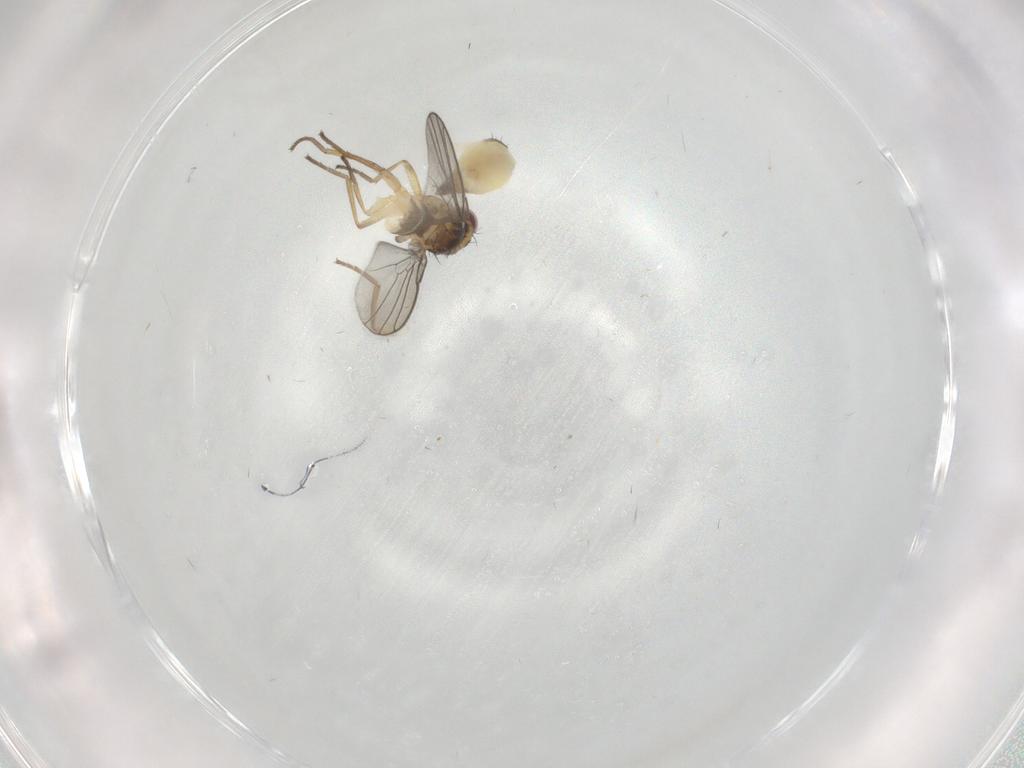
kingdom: Animalia
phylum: Arthropoda
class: Insecta
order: Diptera
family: Agromyzidae
